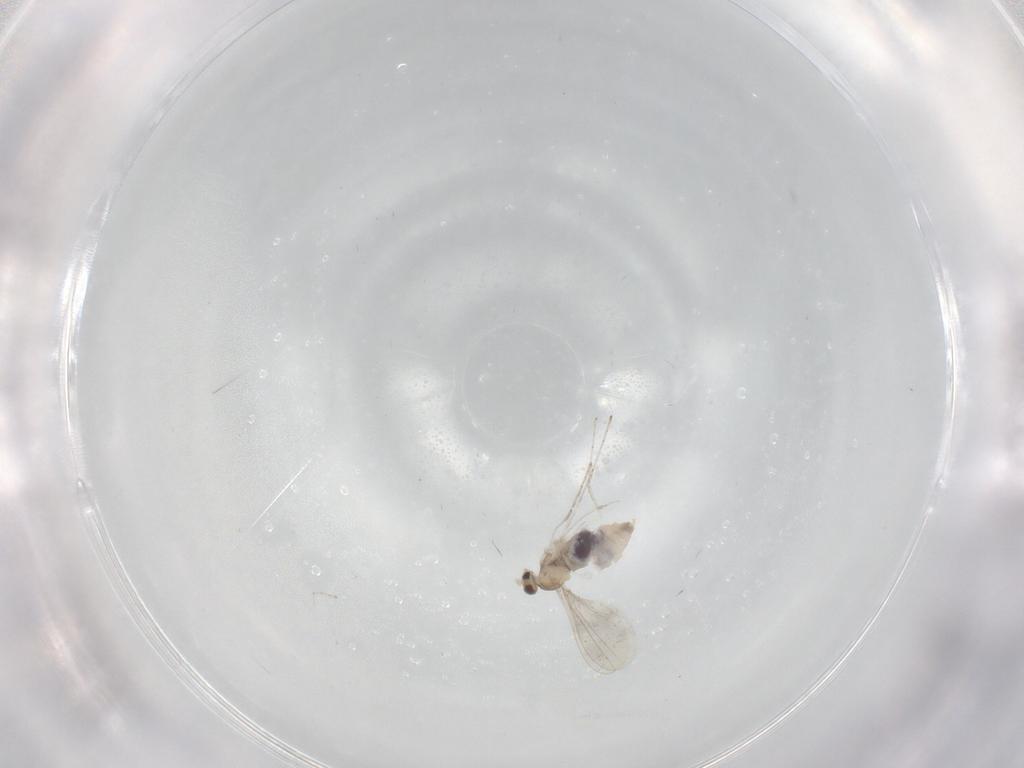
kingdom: Animalia
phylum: Arthropoda
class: Insecta
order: Diptera
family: Cecidomyiidae
